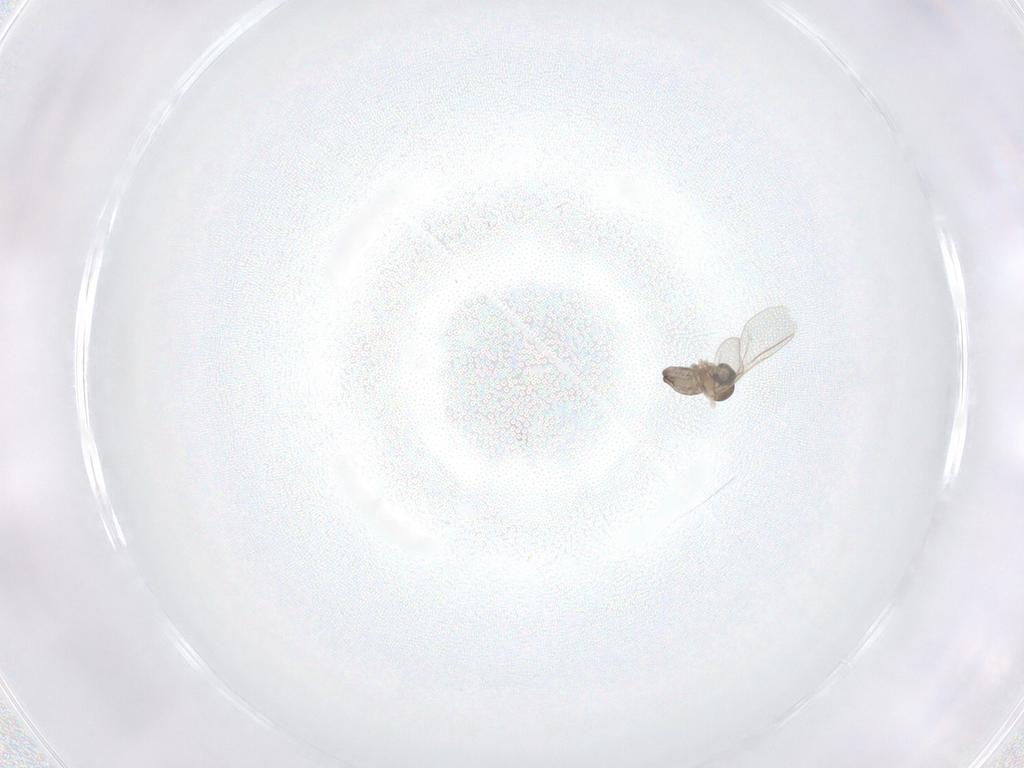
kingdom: Animalia
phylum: Arthropoda
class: Insecta
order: Diptera
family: Cecidomyiidae
